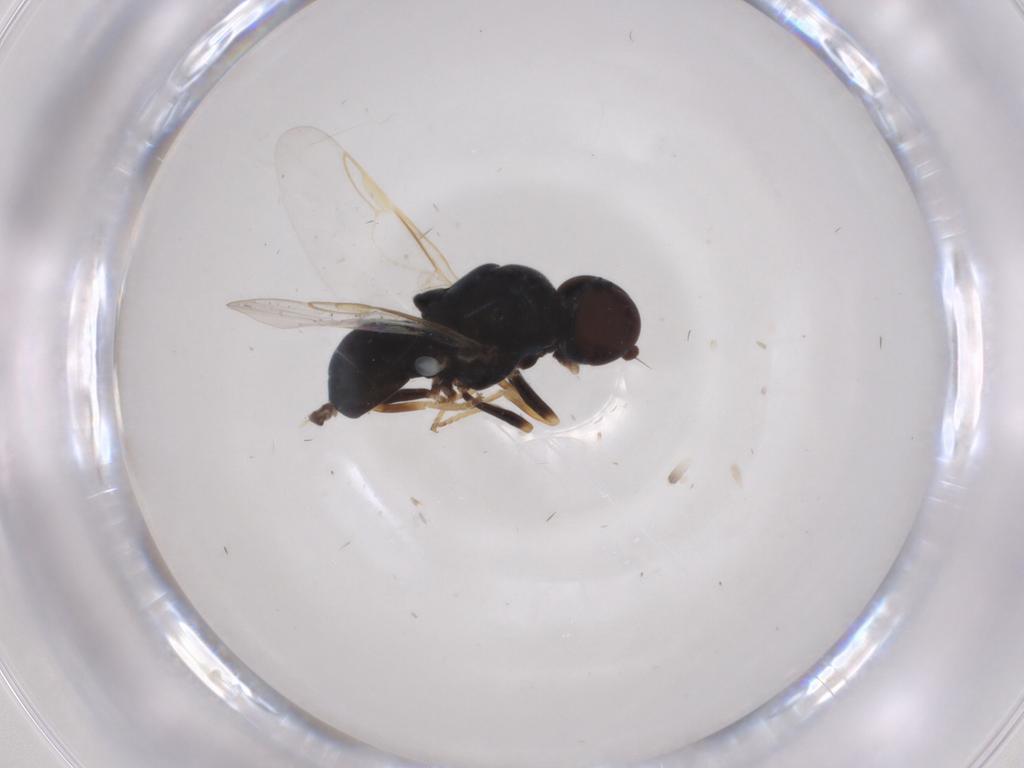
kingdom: Animalia
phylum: Arthropoda
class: Insecta
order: Diptera
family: Stratiomyidae
